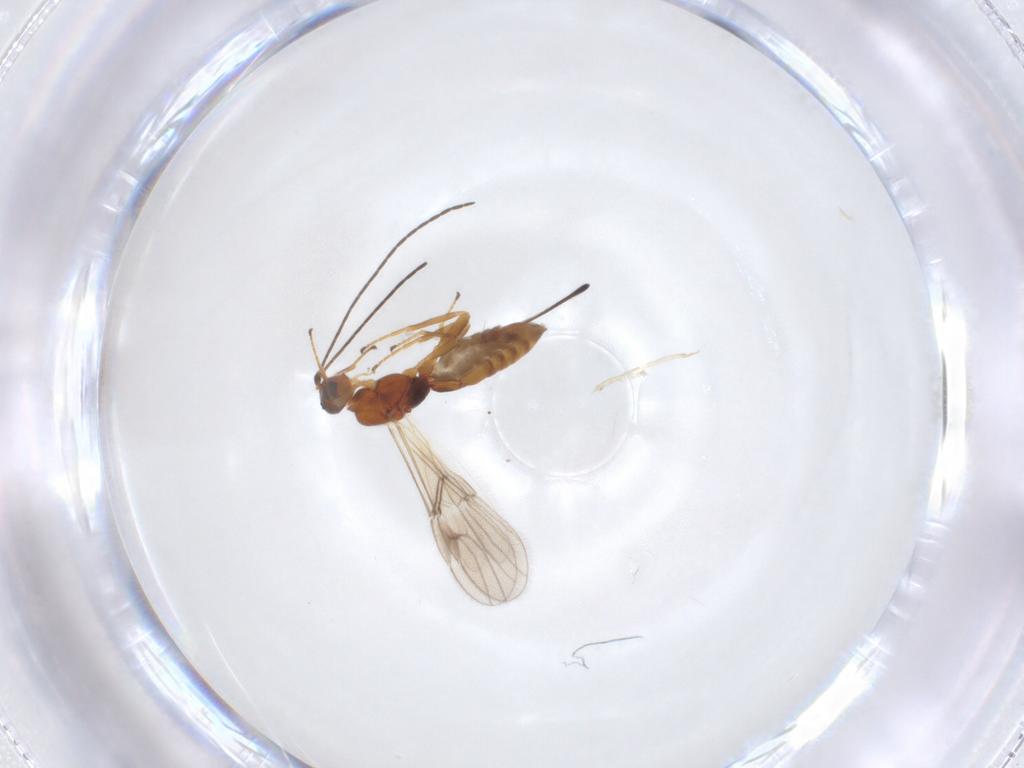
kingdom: Animalia
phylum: Arthropoda
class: Insecta
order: Hymenoptera
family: Braconidae
